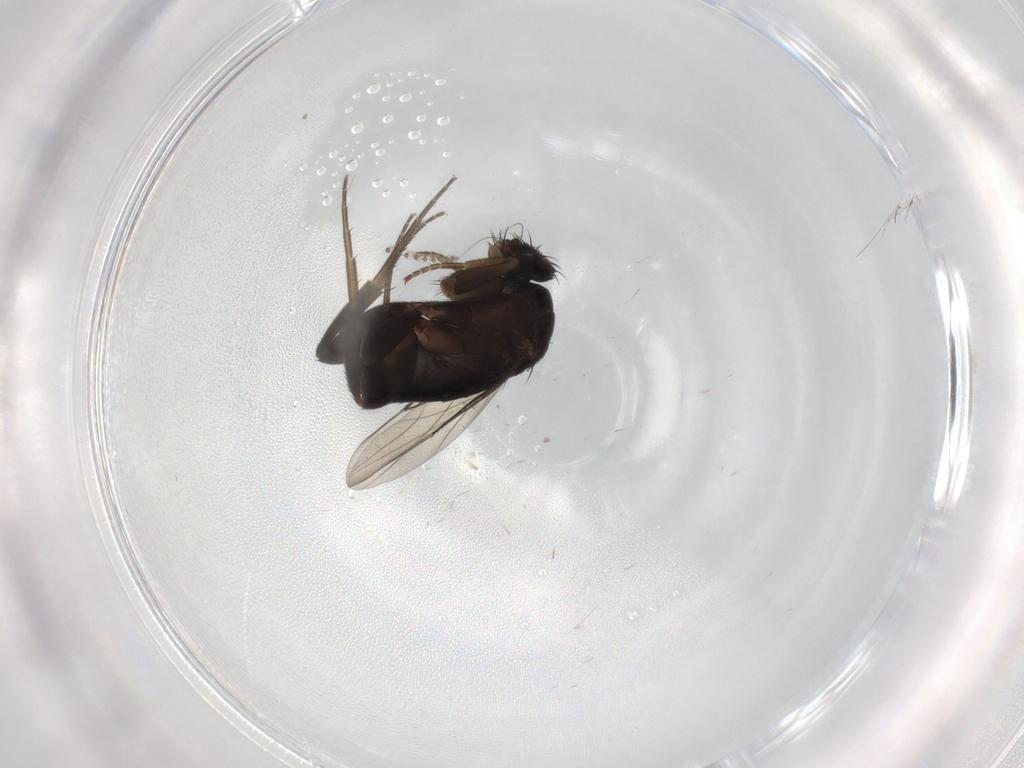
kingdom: Animalia
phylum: Arthropoda
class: Insecta
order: Diptera
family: Phoridae
